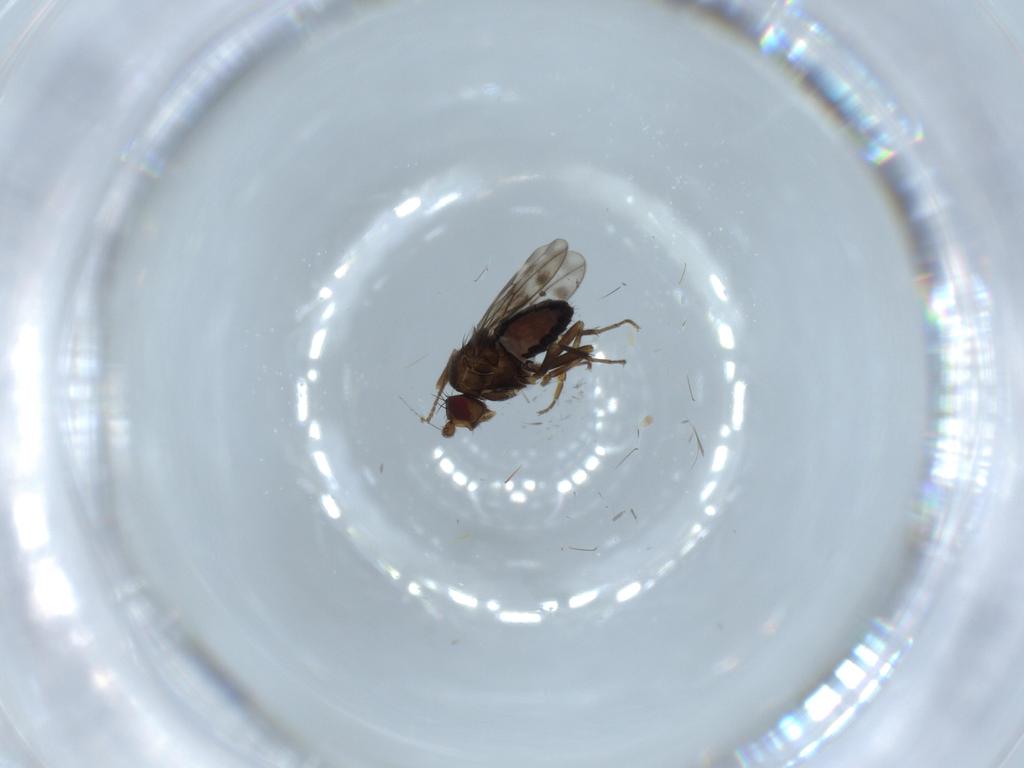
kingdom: Animalia
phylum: Arthropoda
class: Insecta
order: Diptera
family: Sphaeroceridae
